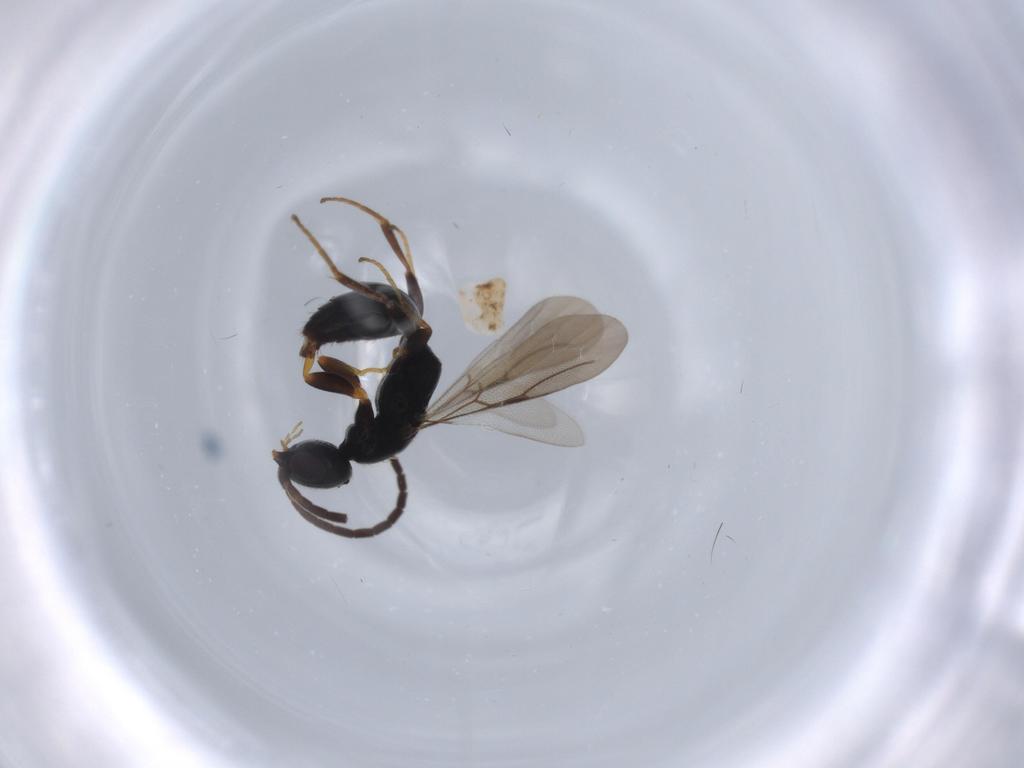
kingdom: Animalia
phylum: Arthropoda
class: Insecta
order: Hymenoptera
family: Bethylidae
